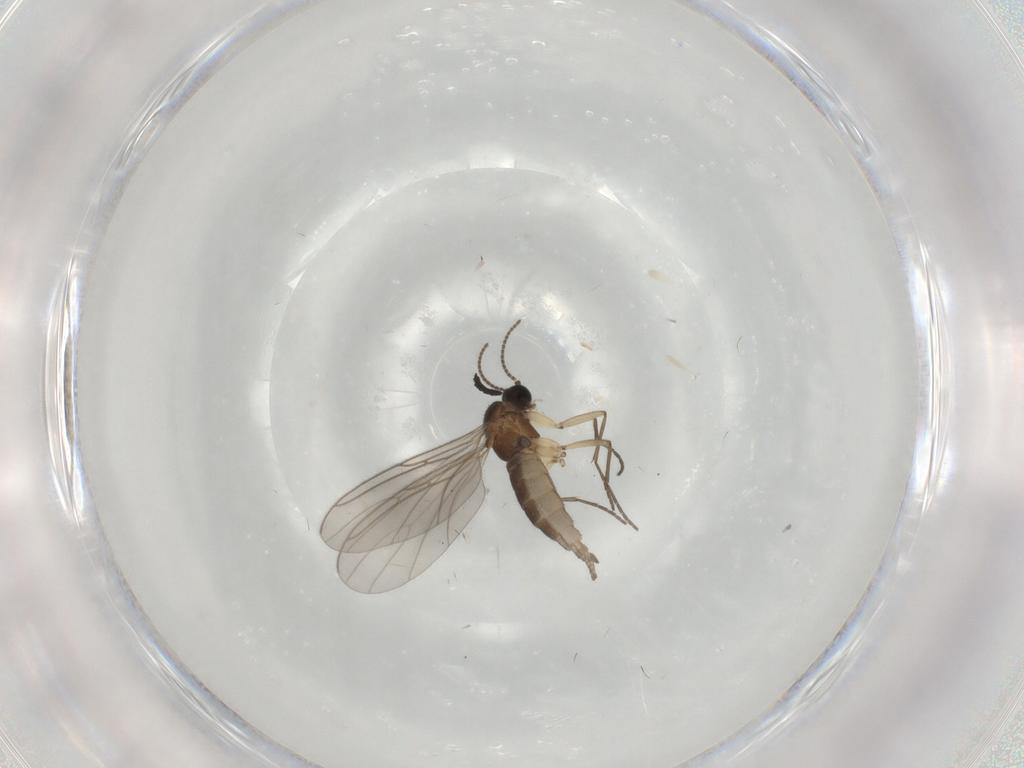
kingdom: Animalia
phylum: Arthropoda
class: Insecta
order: Diptera
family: Sciaridae
